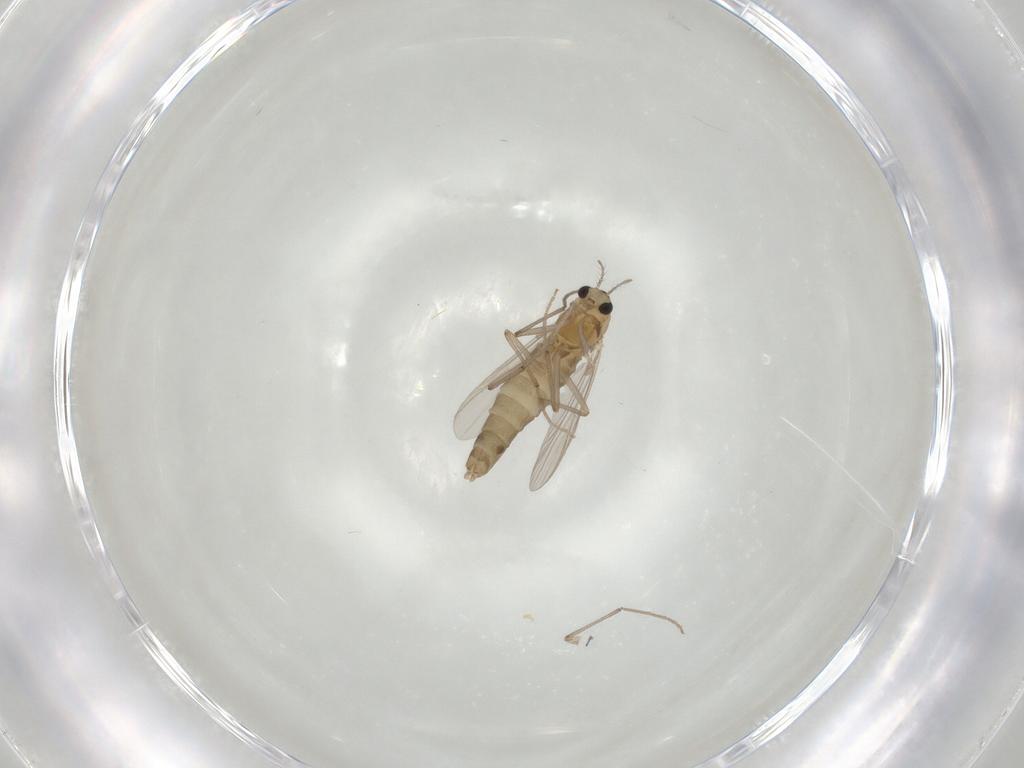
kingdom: Animalia
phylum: Arthropoda
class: Insecta
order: Diptera
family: Chironomidae
